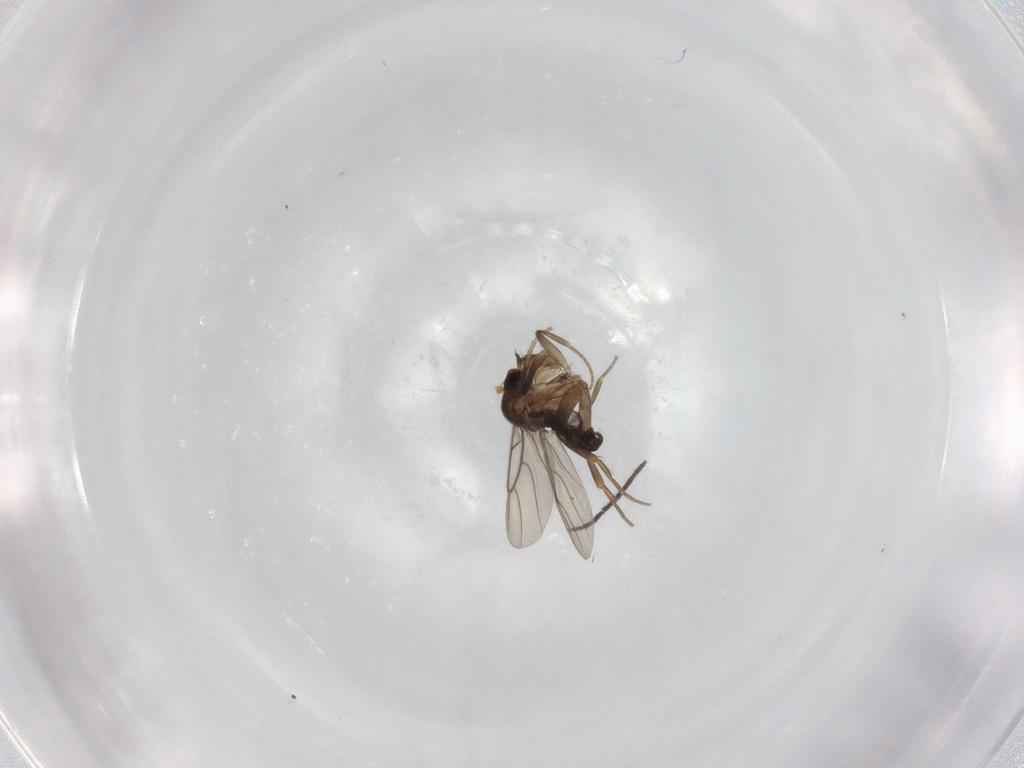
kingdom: Animalia
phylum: Arthropoda
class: Insecta
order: Diptera
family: Phoridae
